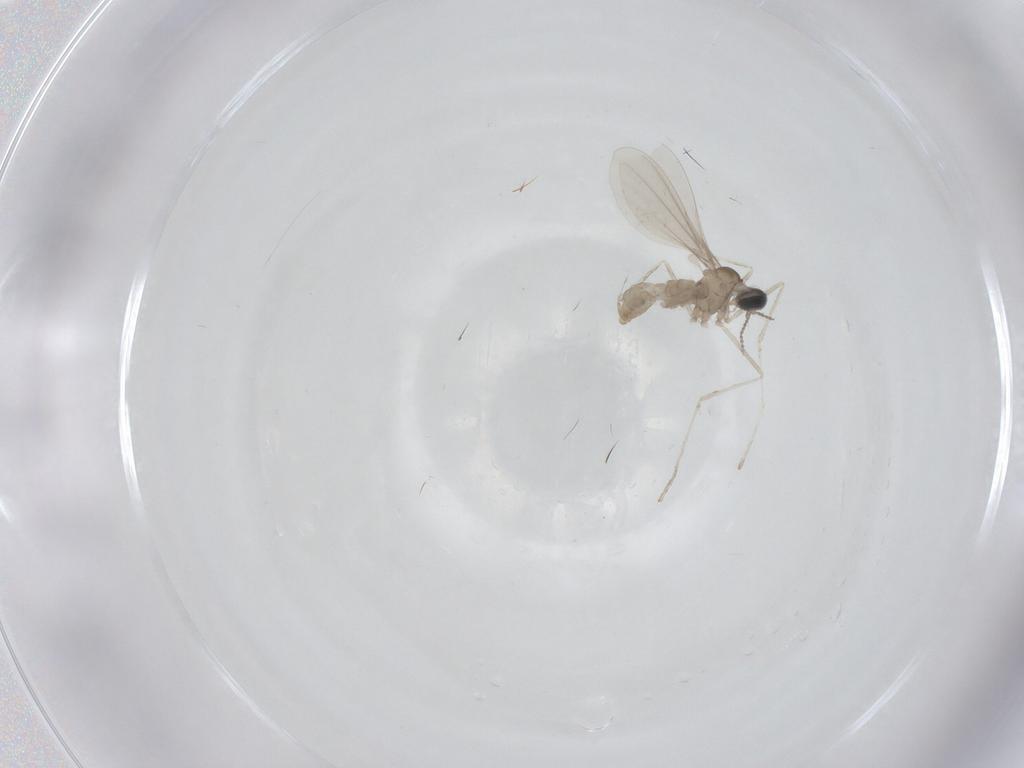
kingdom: Animalia
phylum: Arthropoda
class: Insecta
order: Diptera
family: Cecidomyiidae
